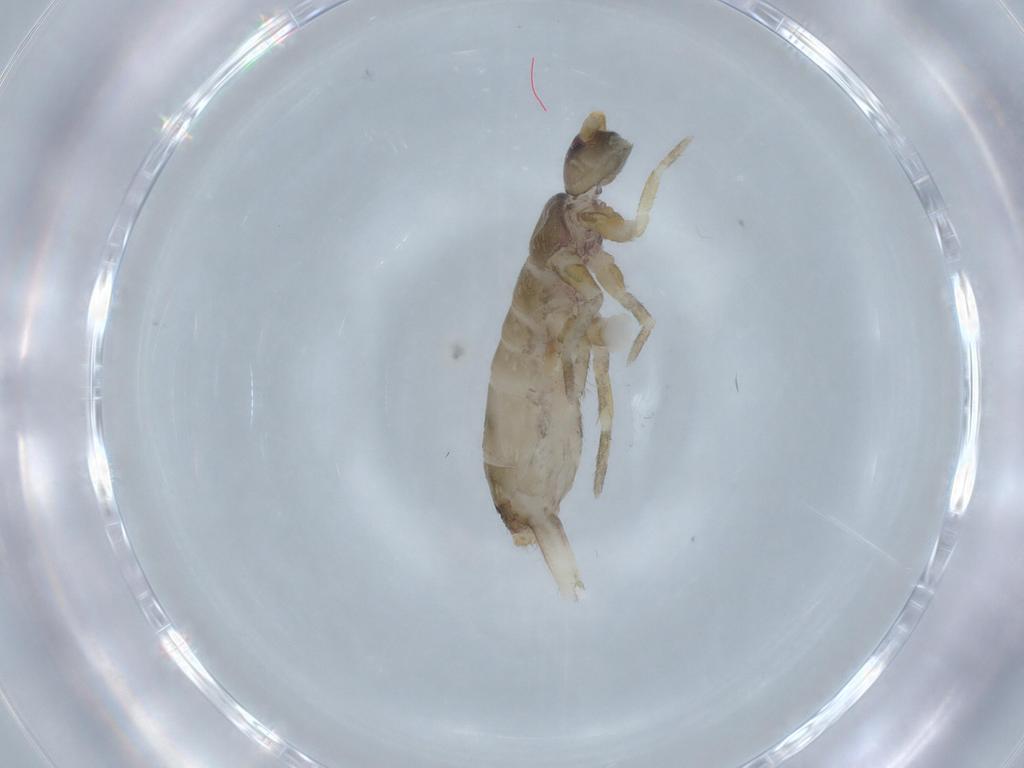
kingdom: Animalia
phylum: Arthropoda
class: Collembola
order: Entomobryomorpha
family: Tomoceridae
